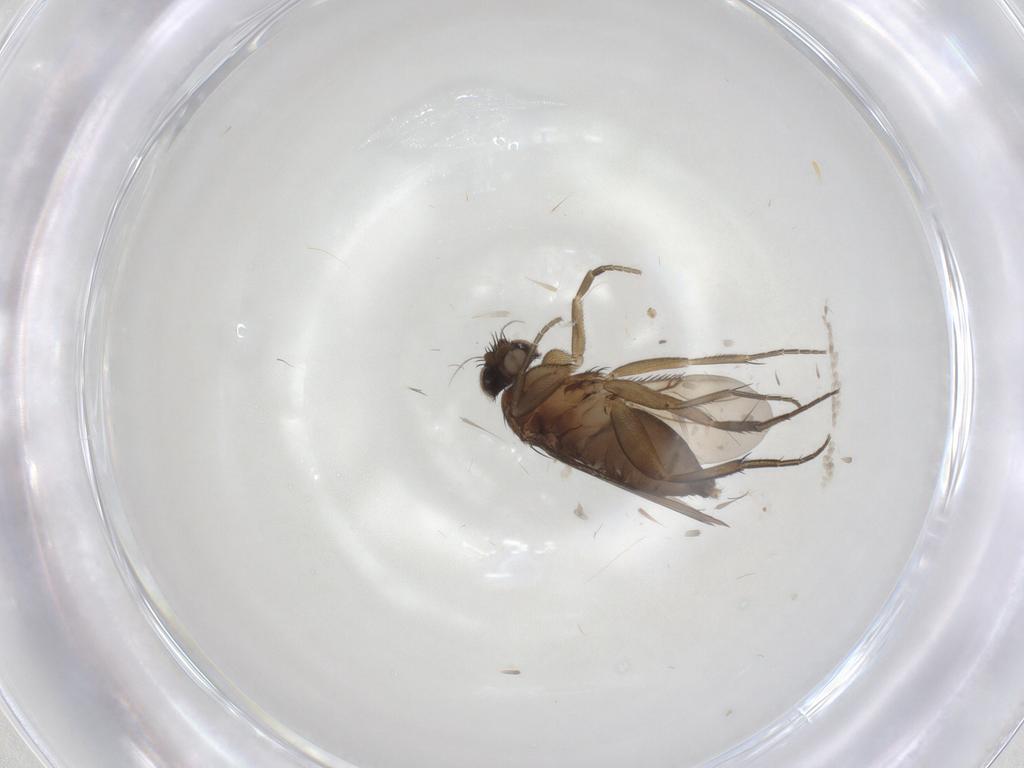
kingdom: Animalia
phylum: Arthropoda
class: Insecta
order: Diptera
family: Phoridae
